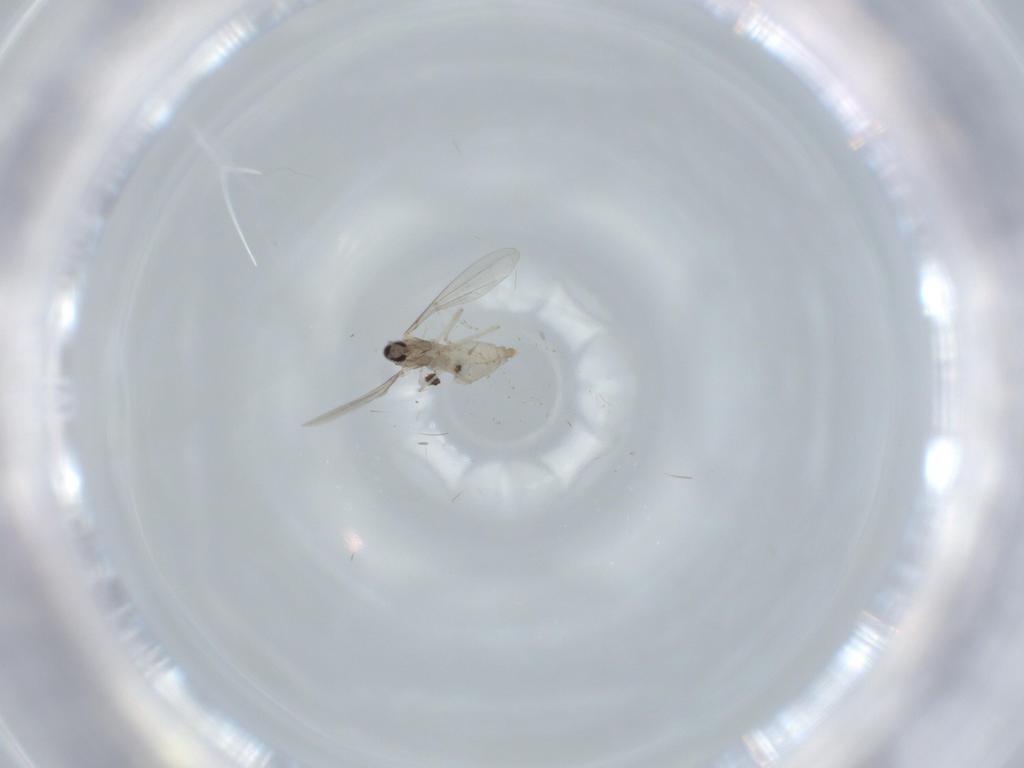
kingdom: Animalia
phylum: Arthropoda
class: Insecta
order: Diptera
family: Cecidomyiidae
